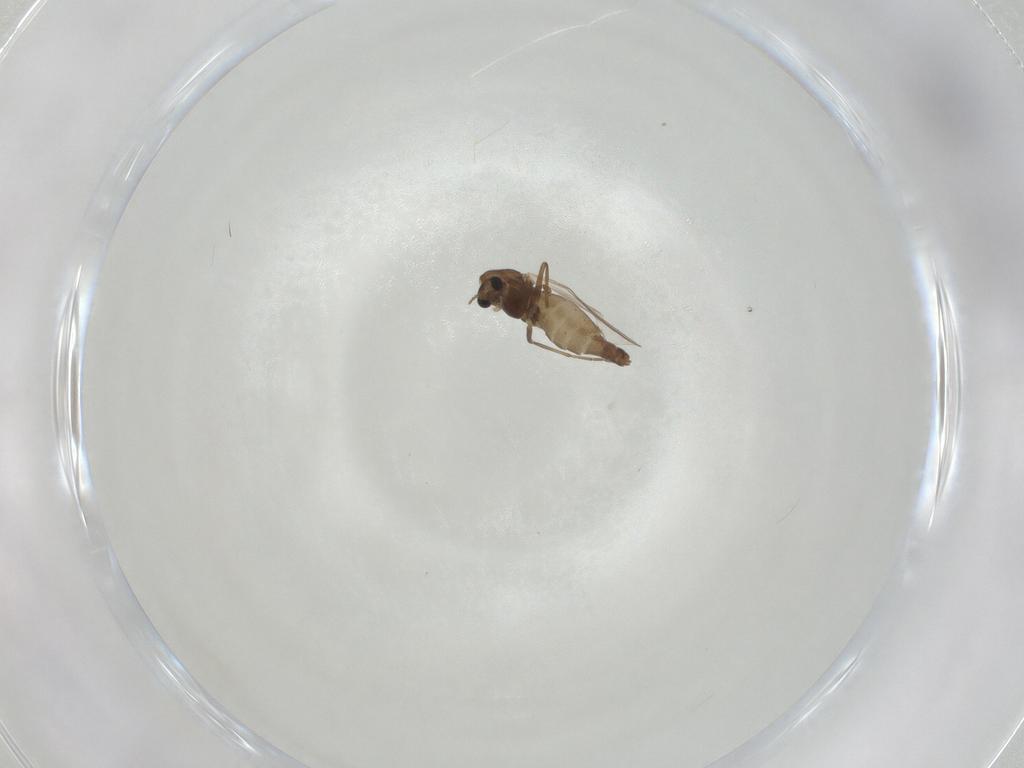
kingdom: Animalia
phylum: Arthropoda
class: Insecta
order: Diptera
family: Chironomidae
